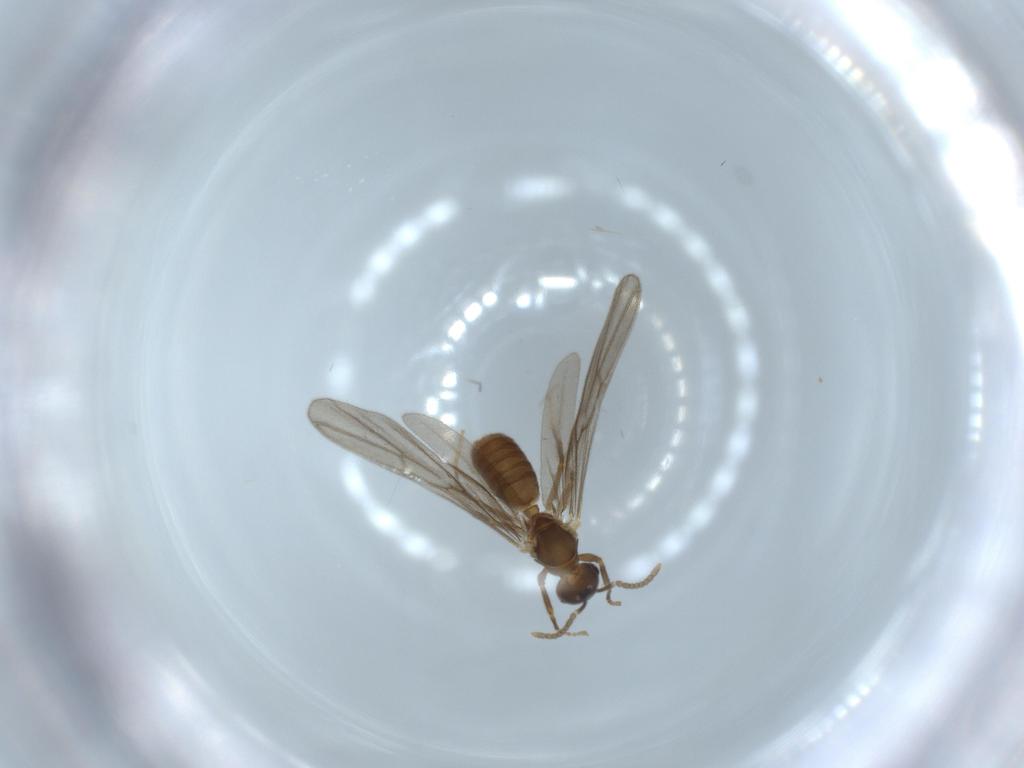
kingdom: Animalia
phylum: Arthropoda
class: Insecta
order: Hymenoptera
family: Formicidae
